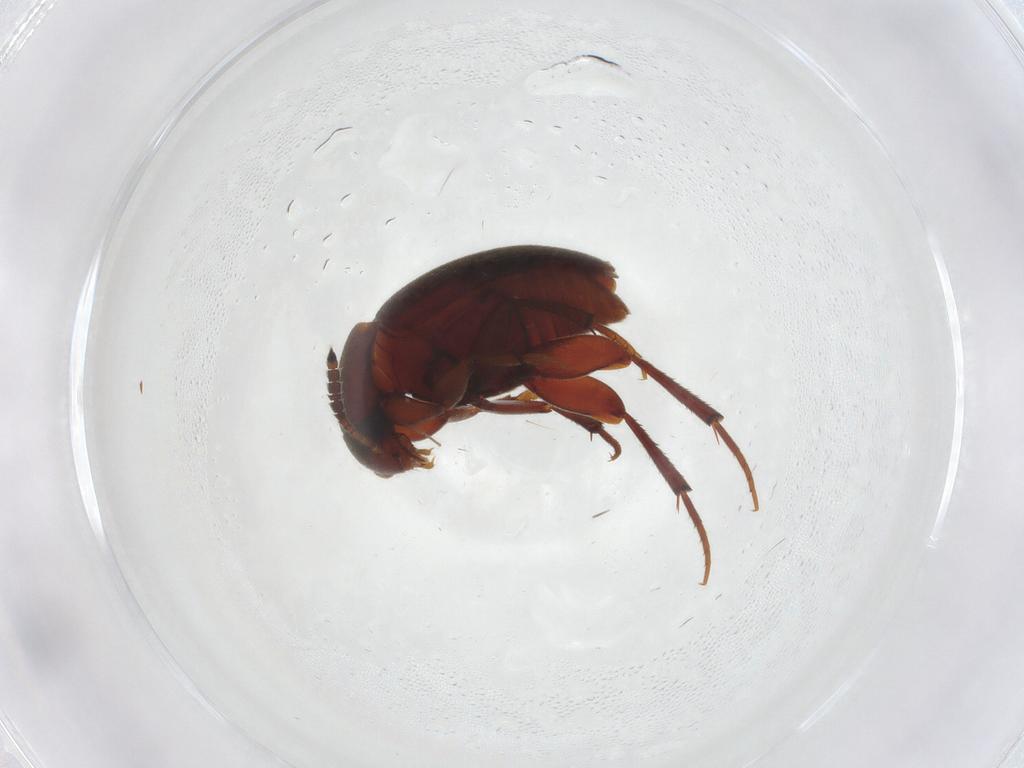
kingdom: Animalia
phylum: Arthropoda
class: Insecta
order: Coleoptera
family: Leiodidae
